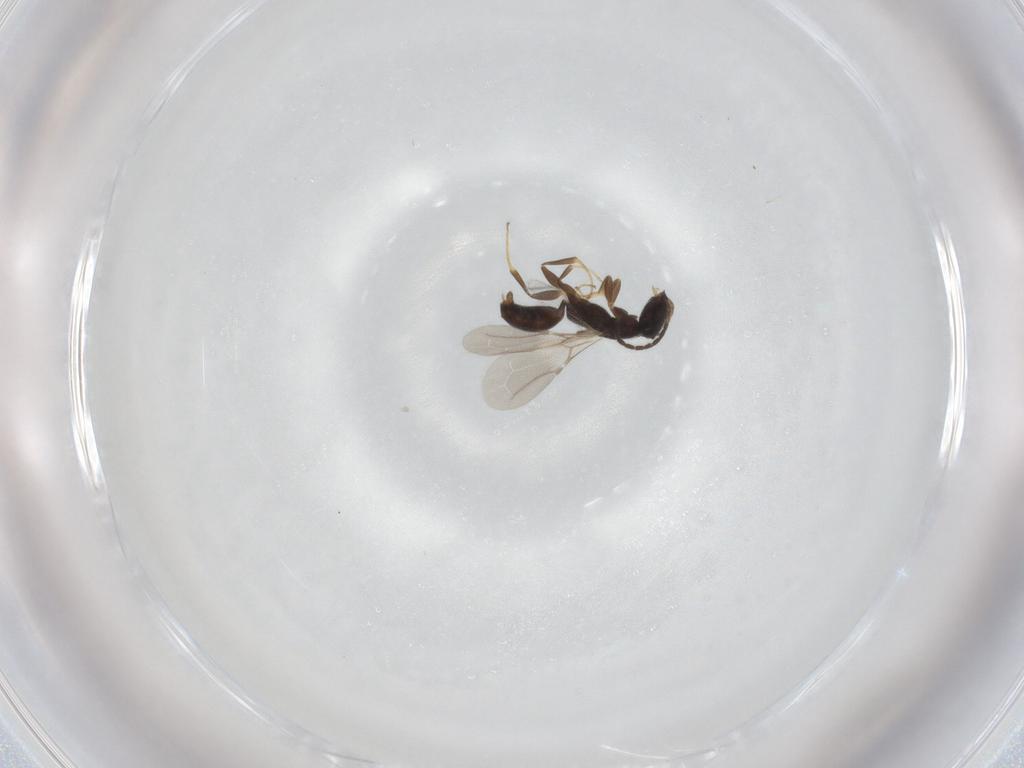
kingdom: Animalia
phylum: Arthropoda
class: Insecta
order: Hymenoptera
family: Bethylidae
